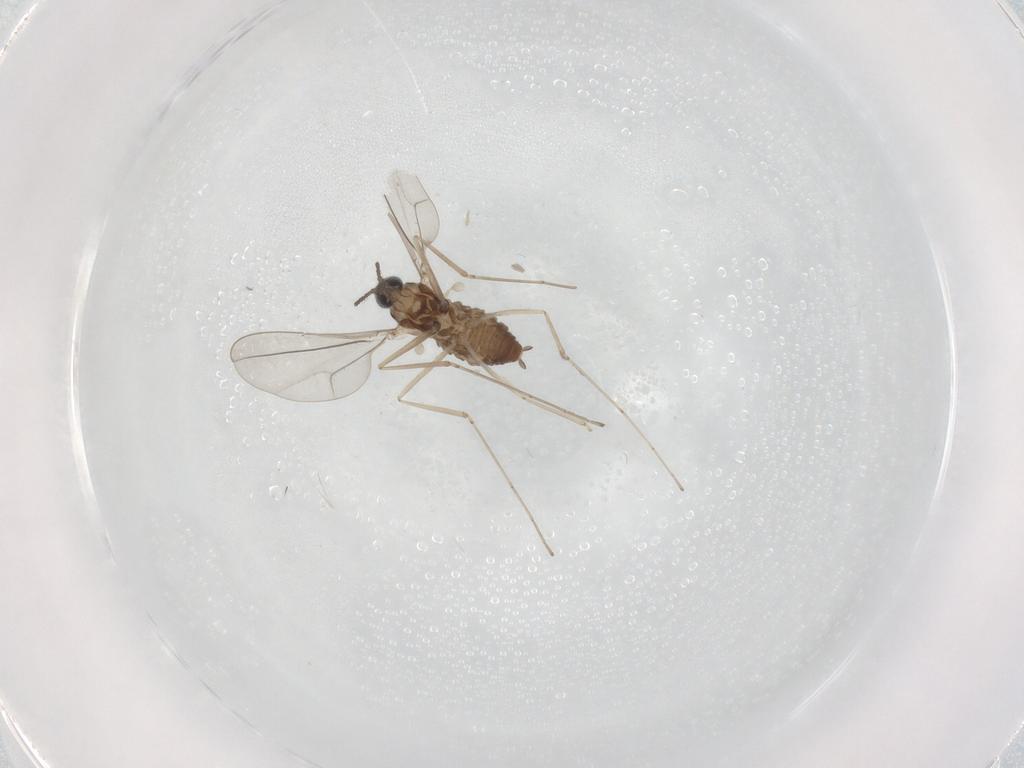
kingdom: Animalia
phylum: Arthropoda
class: Insecta
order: Diptera
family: Cecidomyiidae
